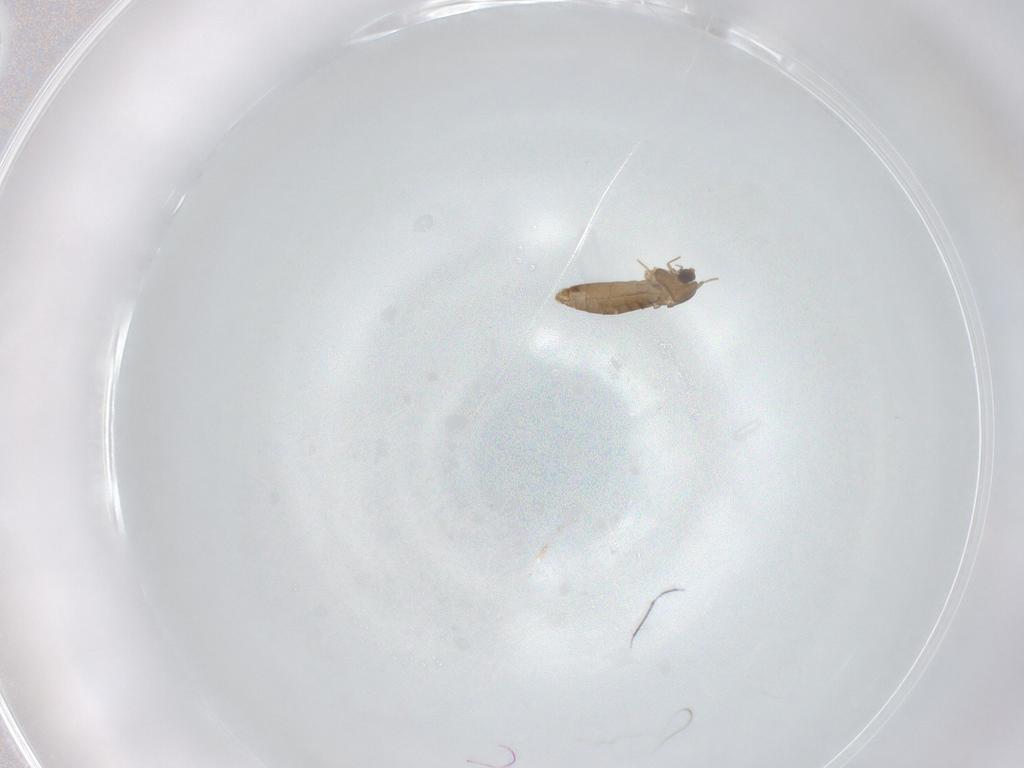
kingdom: Animalia
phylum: Arthropoda
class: Insecta
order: Diptera
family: Chironomidae
